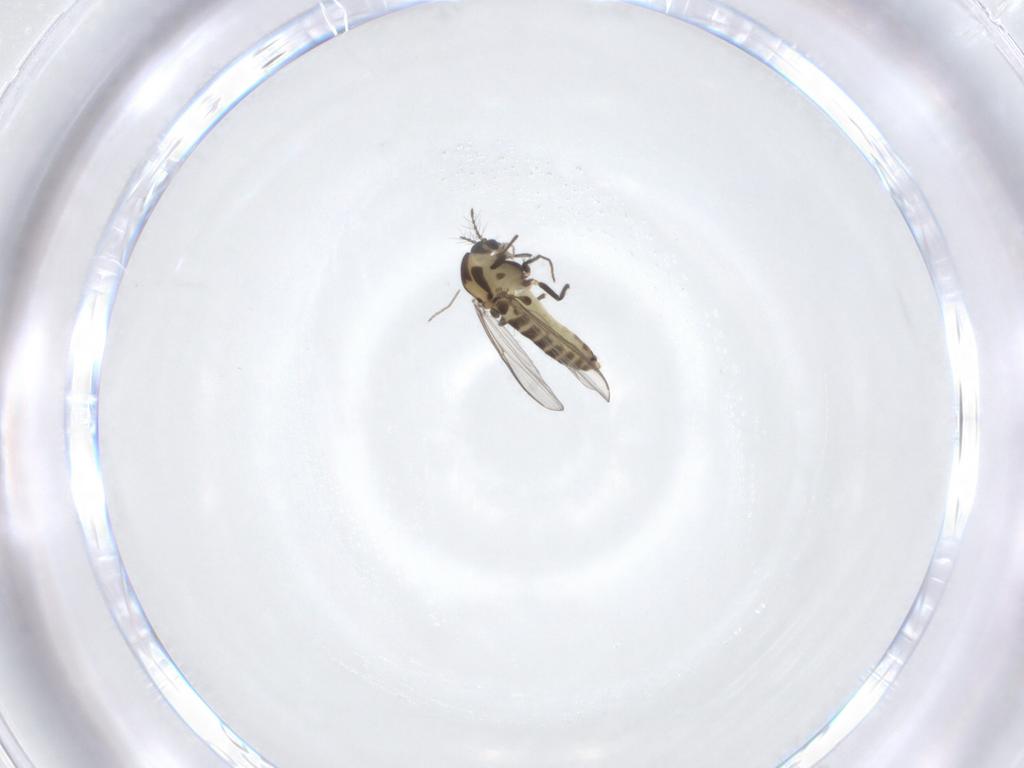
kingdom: Animalia
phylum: Arthropoda
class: Insecta
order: Diptera
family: Chironomidae
